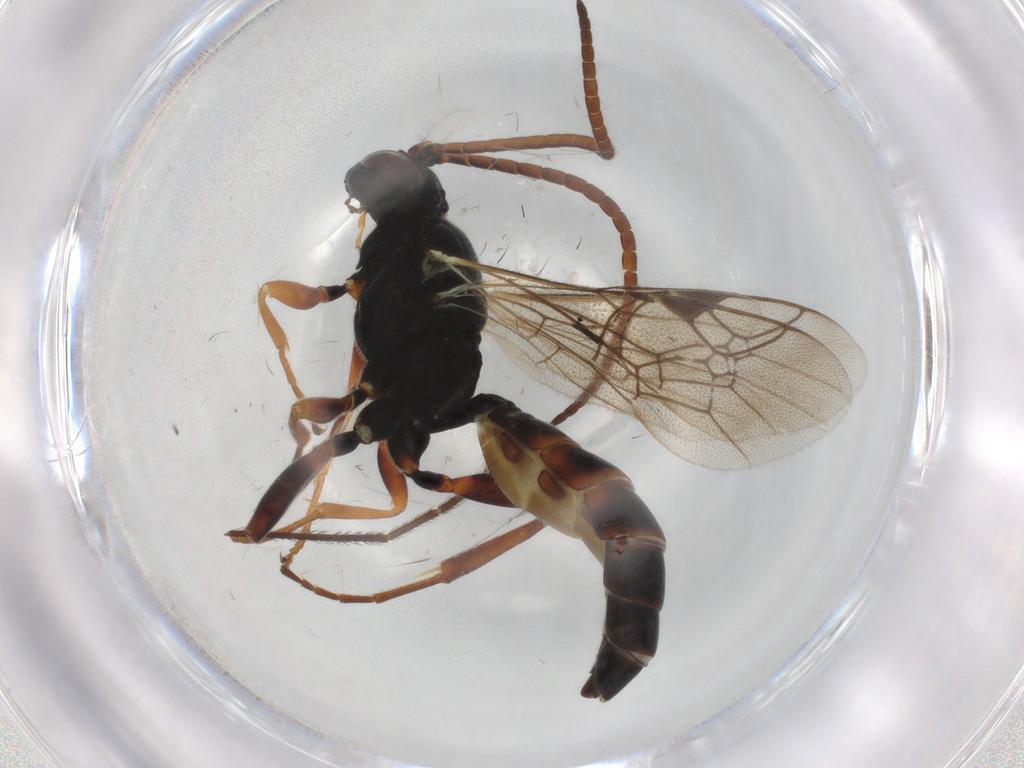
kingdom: Animalia
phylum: Arthropoda
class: Insecta
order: Hymenoptera
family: Ichneumonidae
